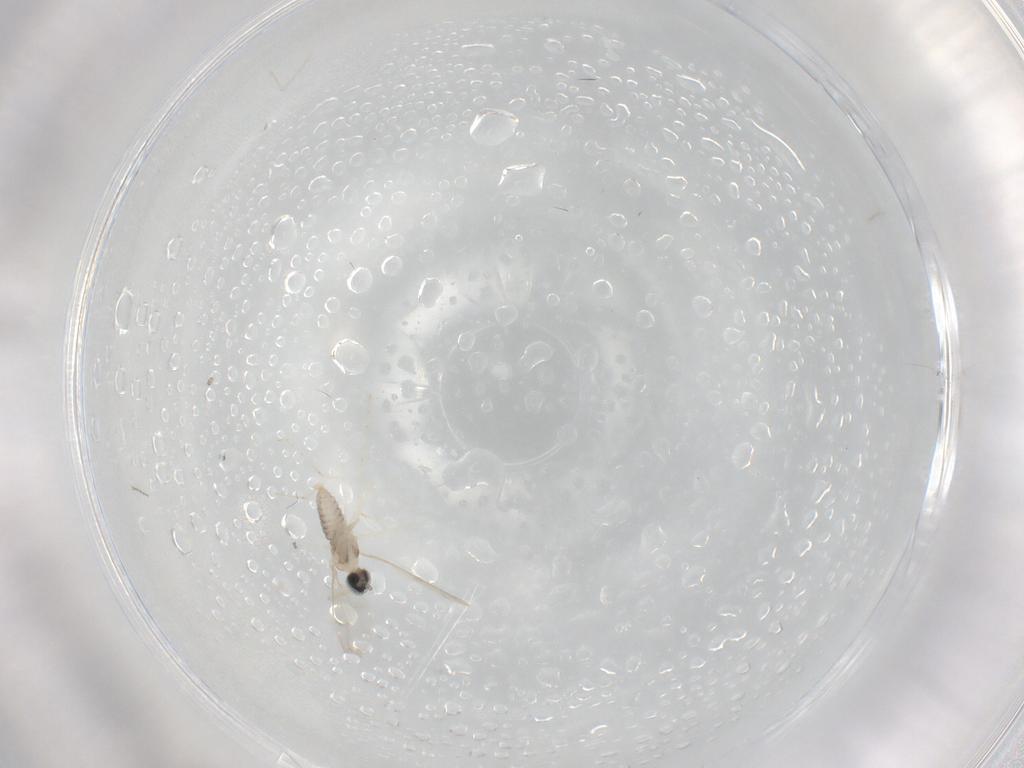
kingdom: Animalia
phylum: Arthropoda
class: Insecta
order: Diptera
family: Cecidomyiidae
